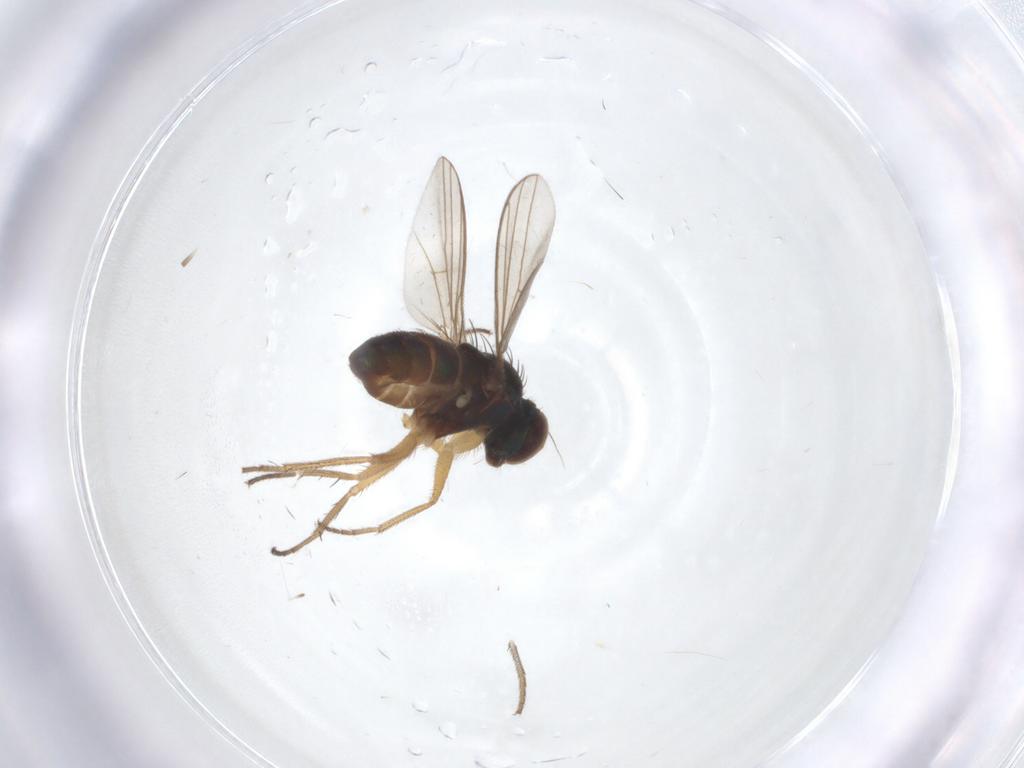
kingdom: Animalia
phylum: Arthropoda
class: Insecta
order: Diptera
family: Dolichopodidae
